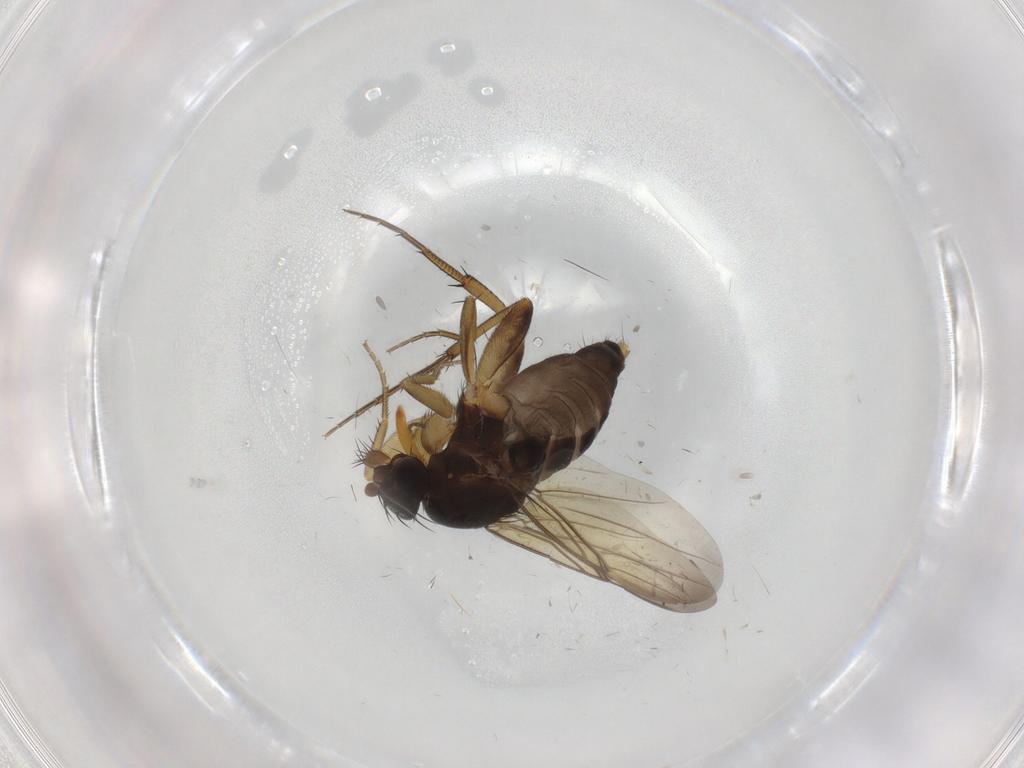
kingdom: Animalia
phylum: Arthropoda
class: Insecta
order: Diptera
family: Phoridae
